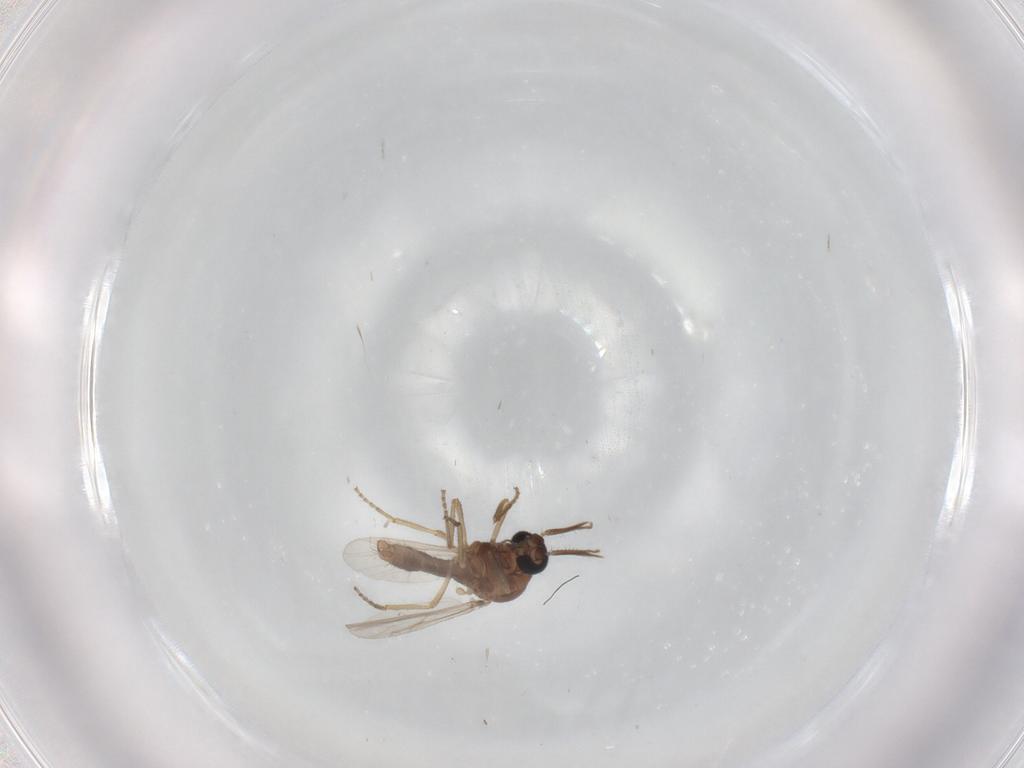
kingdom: Animalia
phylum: Arthropoda
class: Insecta
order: Diptera
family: Ceratopogonidae
